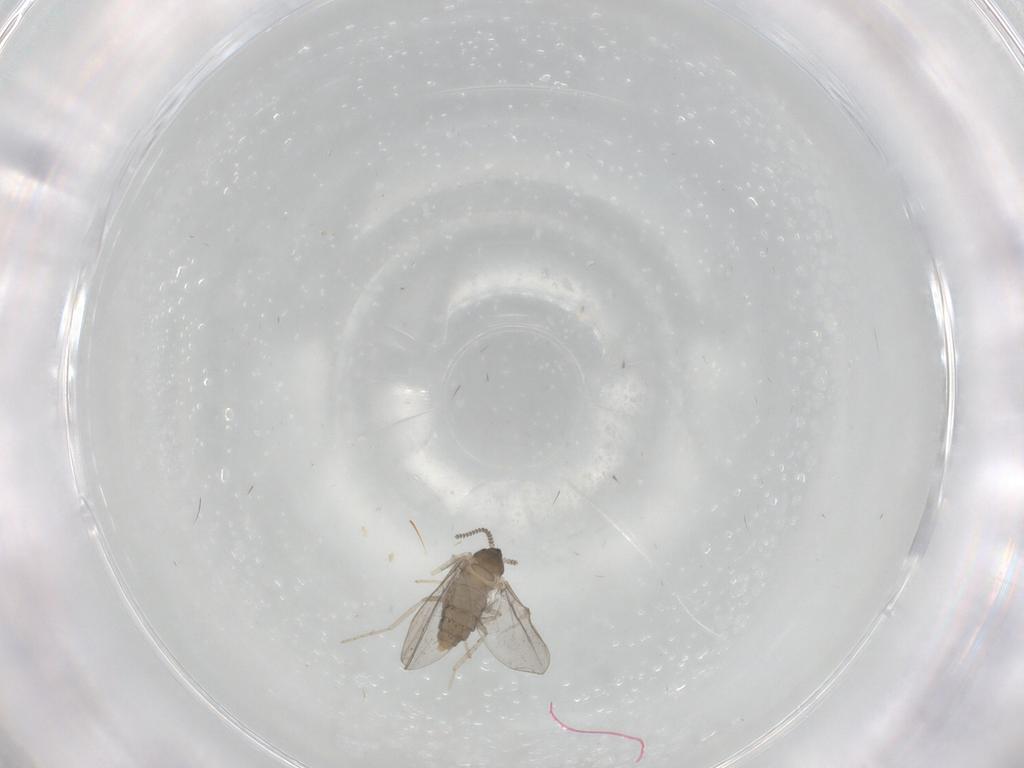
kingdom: Animalia
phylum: Arthropoda
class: Insecta
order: Diptera
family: Cecidomyiidae
